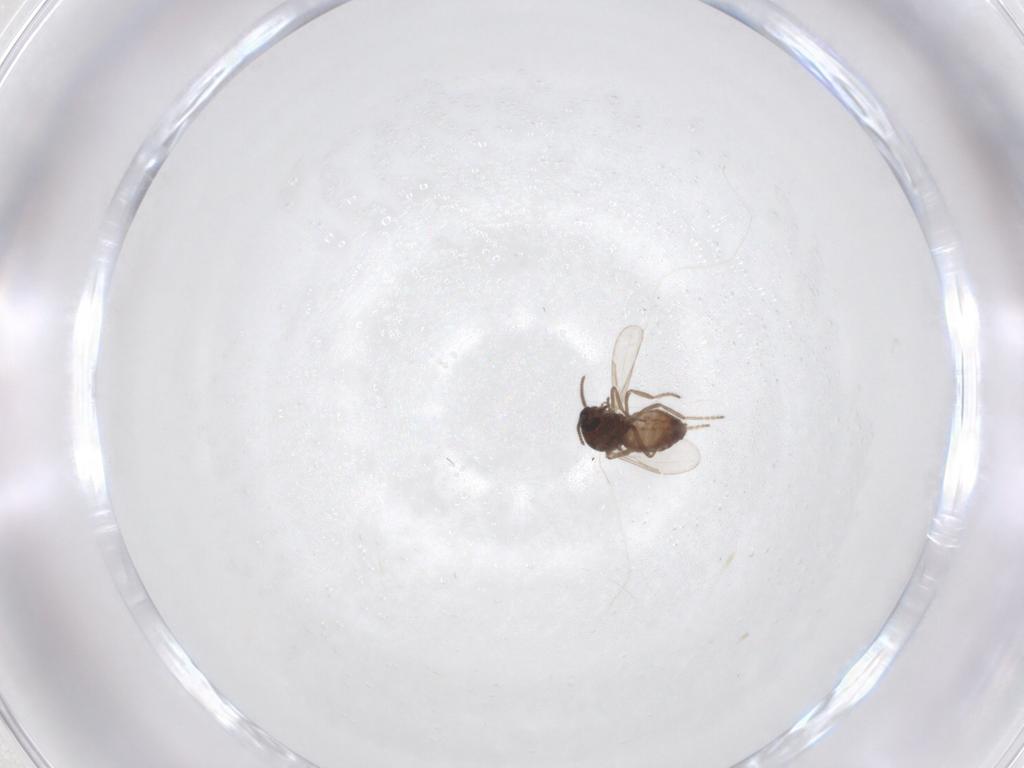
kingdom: Animalia
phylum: Arthropoda
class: Insecta
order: Diptera
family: Ceratopogonidae
